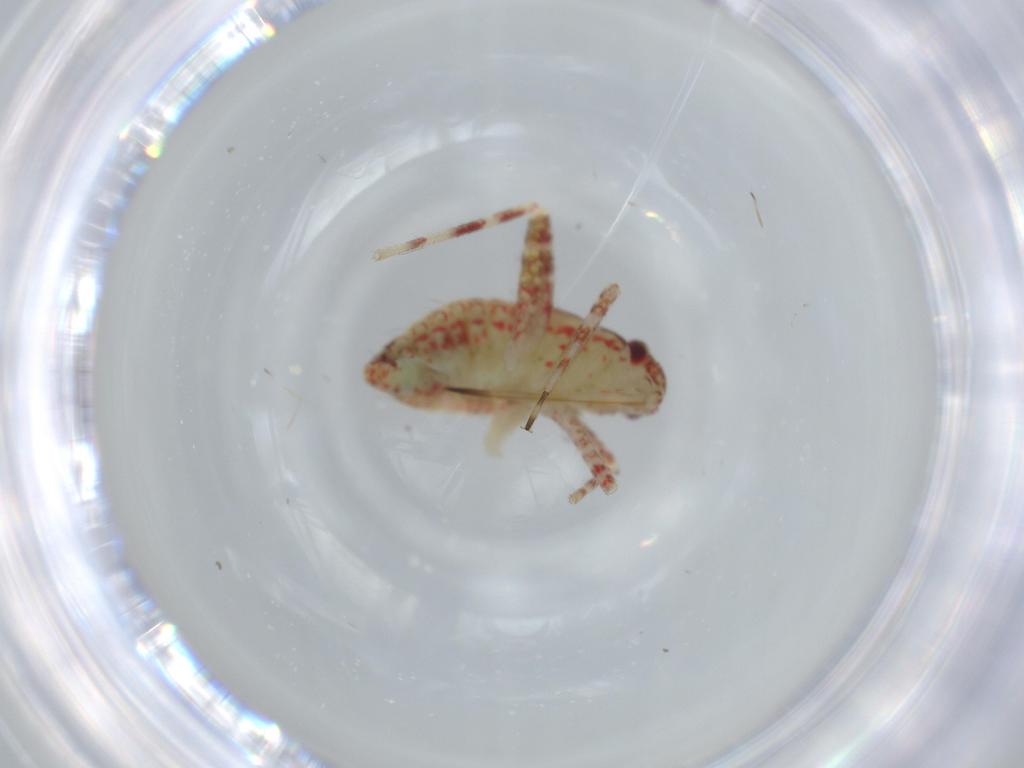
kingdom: Animalia
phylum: Arthropoda
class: Insecta
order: Hemiptera
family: Miridae
